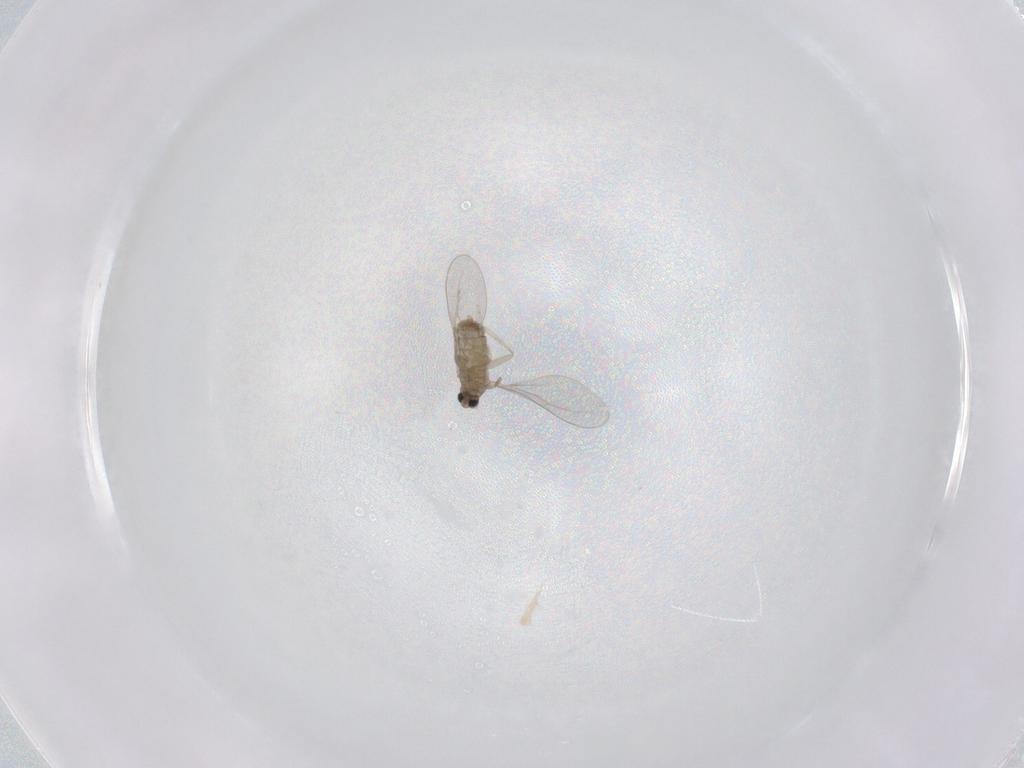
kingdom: Animalia
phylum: Arthropoda
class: Insecta
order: Diptera
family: Cecidomyiidae
